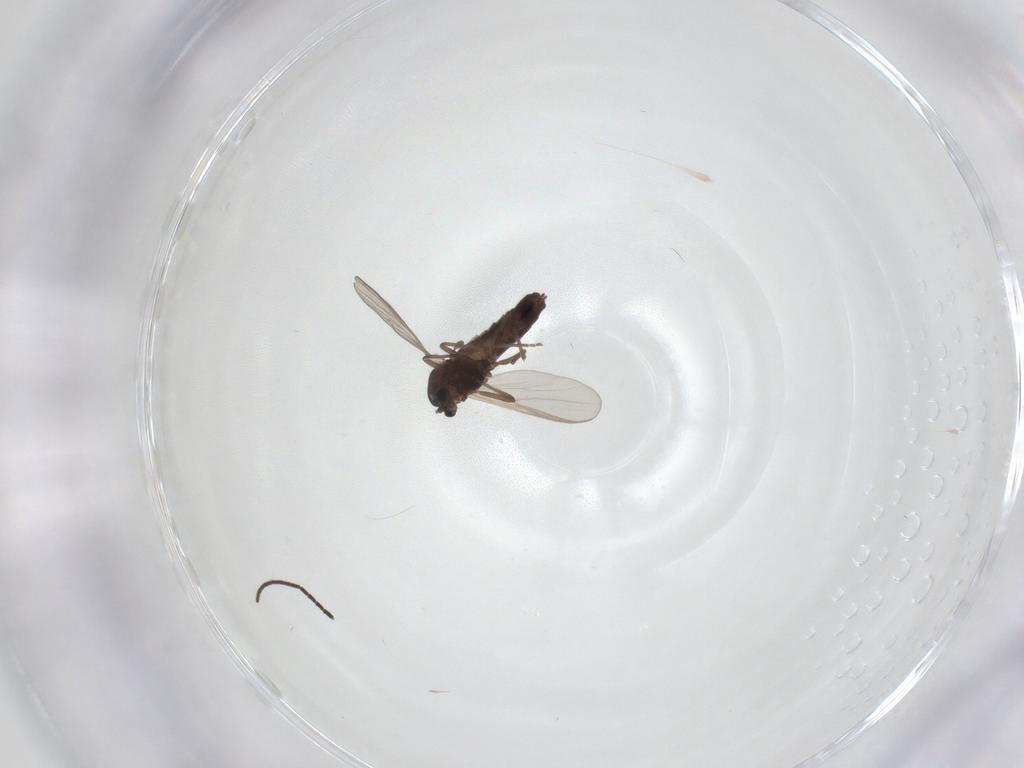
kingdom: Animalia
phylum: Arthropoda
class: Insecta
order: Diptera
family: Chironomidae
